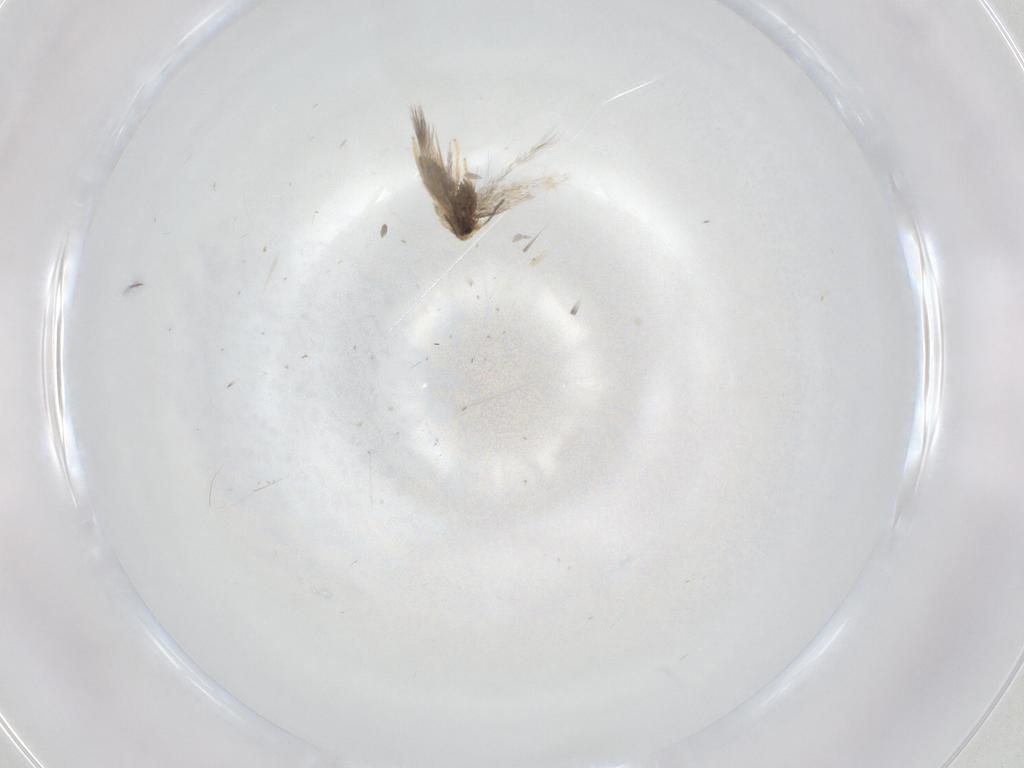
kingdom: Animalia
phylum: Arthropoda
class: Insecta
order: Lepidoptera
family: Nepticulidae
